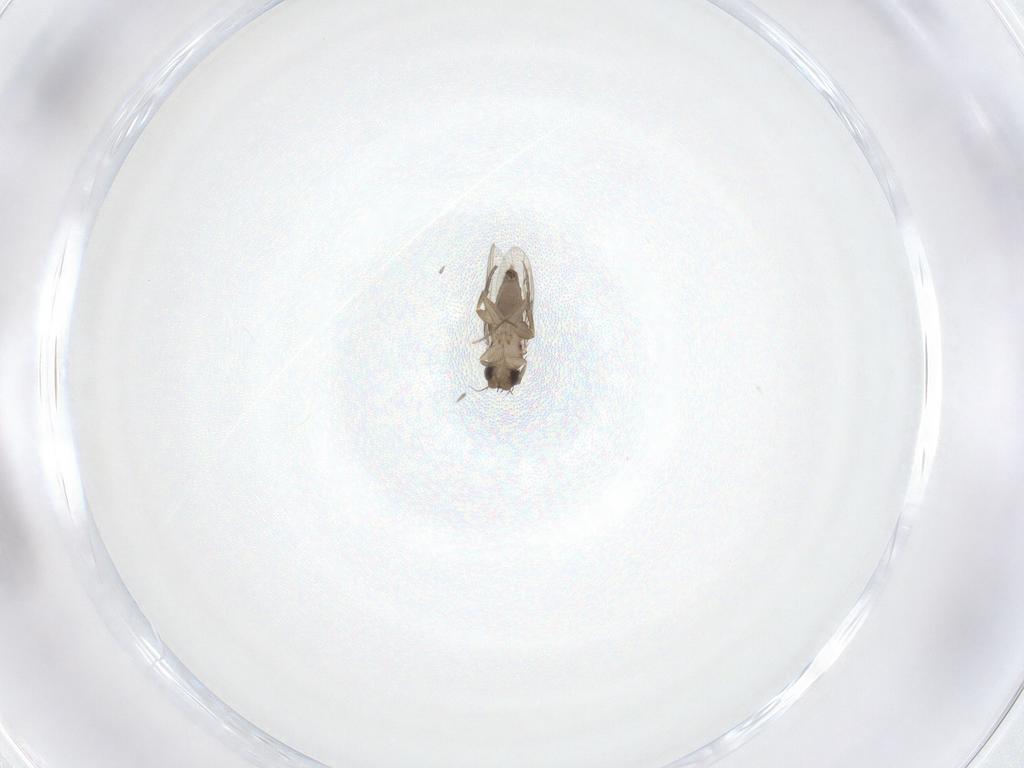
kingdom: Animalia
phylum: Arthropoda
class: Insecta
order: Diptera
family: Phoridae
